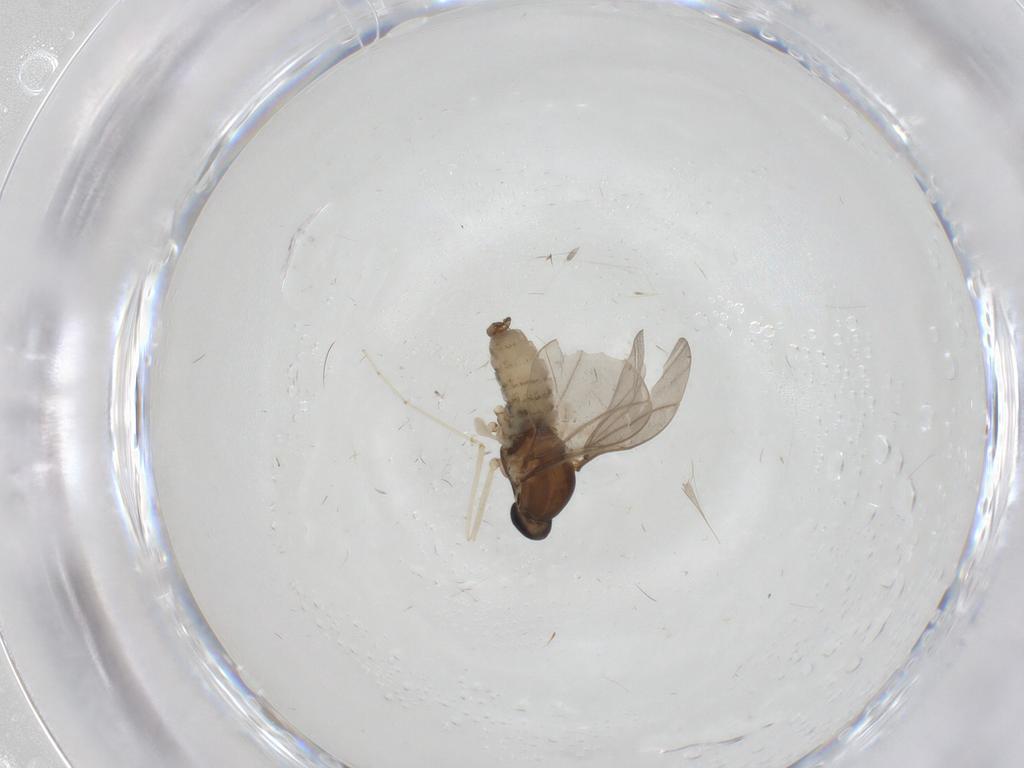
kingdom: Animalia
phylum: Arthropoda
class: Insecta
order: Diptera
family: Cecidomyiidae
